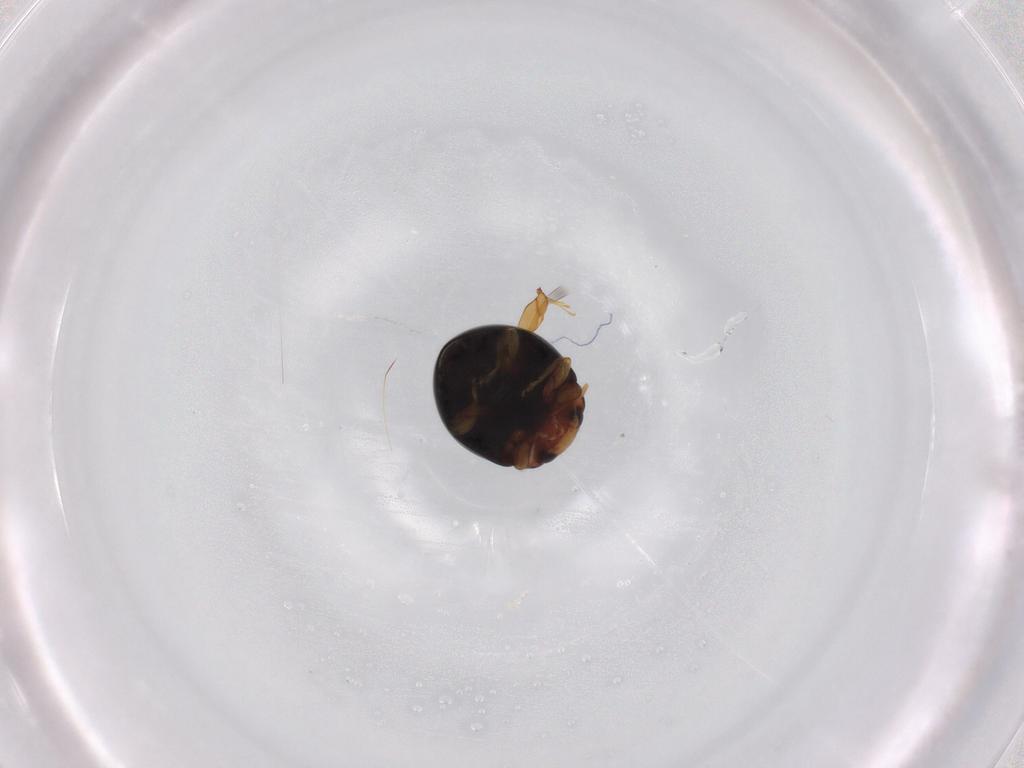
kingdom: Animalia
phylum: Arthropoda
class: Insecta
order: Coleoptera
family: Coccinellidae
